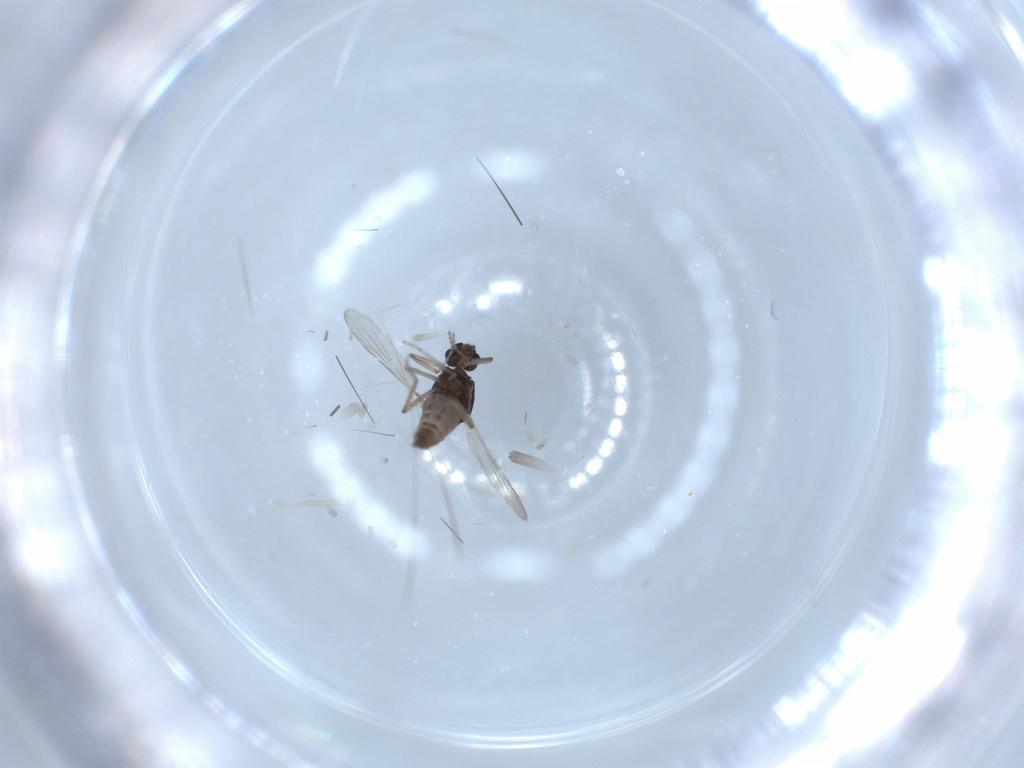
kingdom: Animalia
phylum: Arthropoda
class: Insecta
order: Diptera
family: Ceratopogonidae
